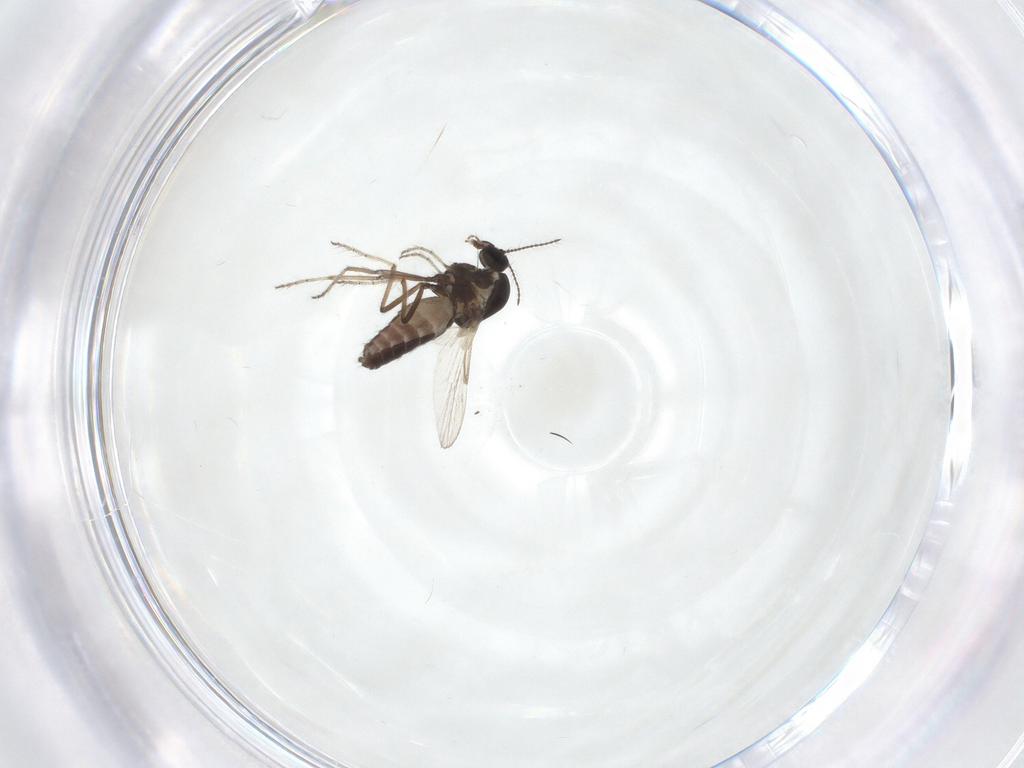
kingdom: Animalia
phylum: Arthropoda
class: Insecta
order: Diptera
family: Ceratopogonidae
